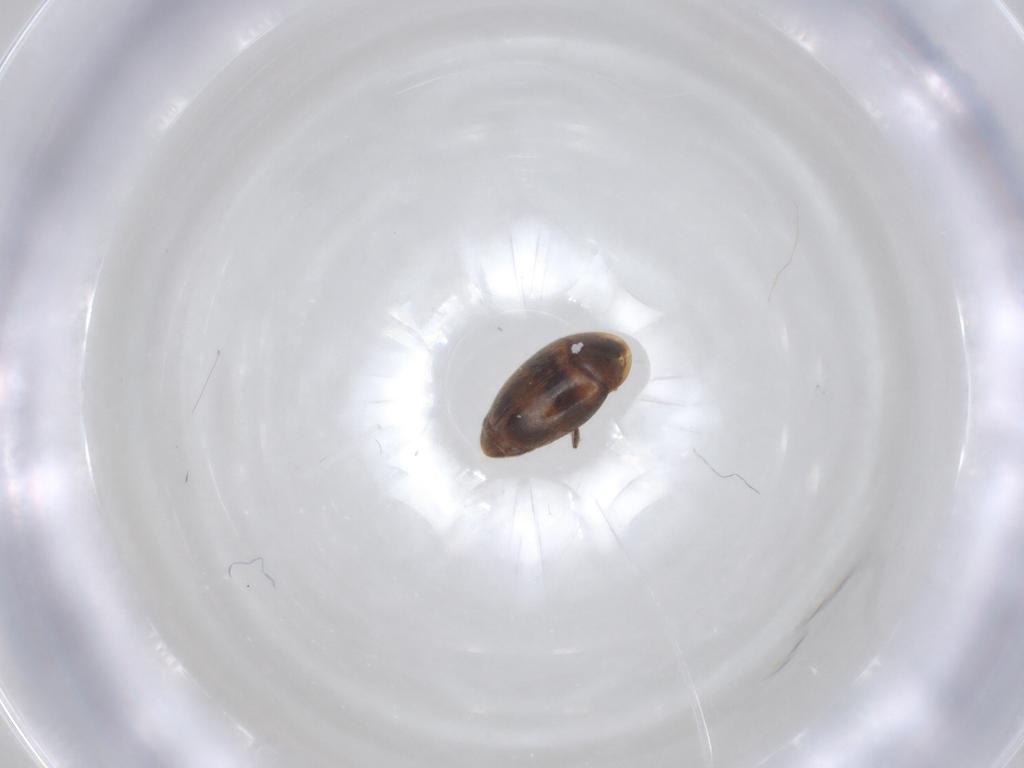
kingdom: Animalia
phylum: Arthropoda
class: Insecta
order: Coleoptera
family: Corylophidae
